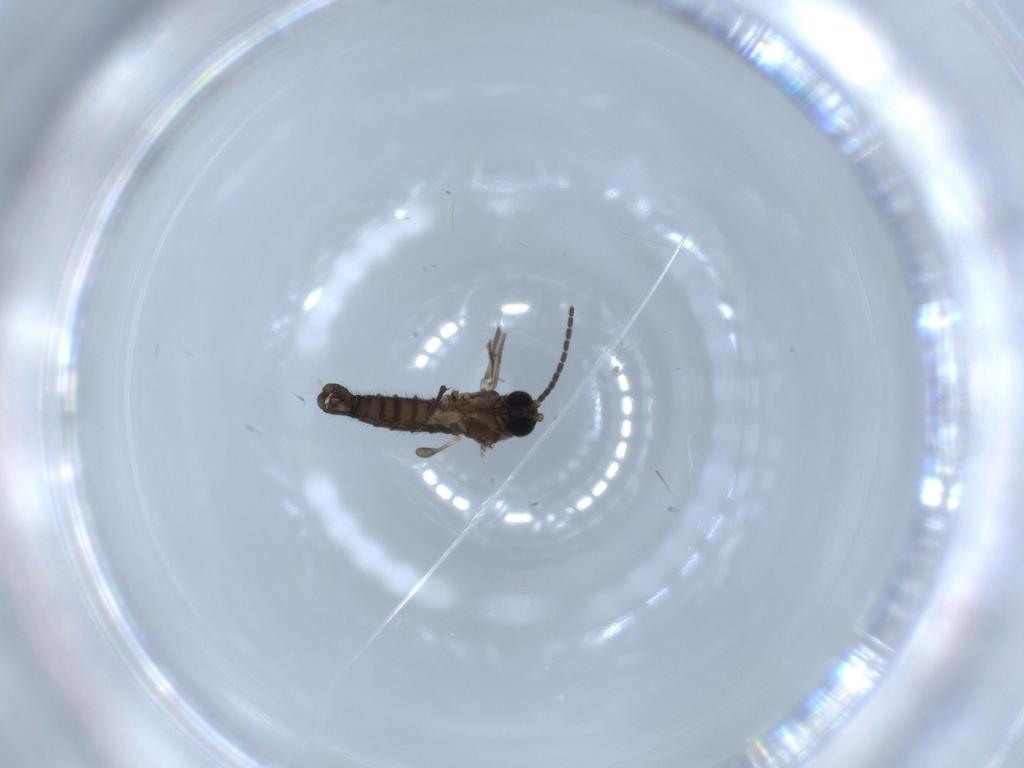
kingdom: Animalia
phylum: Arthropoda
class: Insecta
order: Diptera
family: Sciaridae
